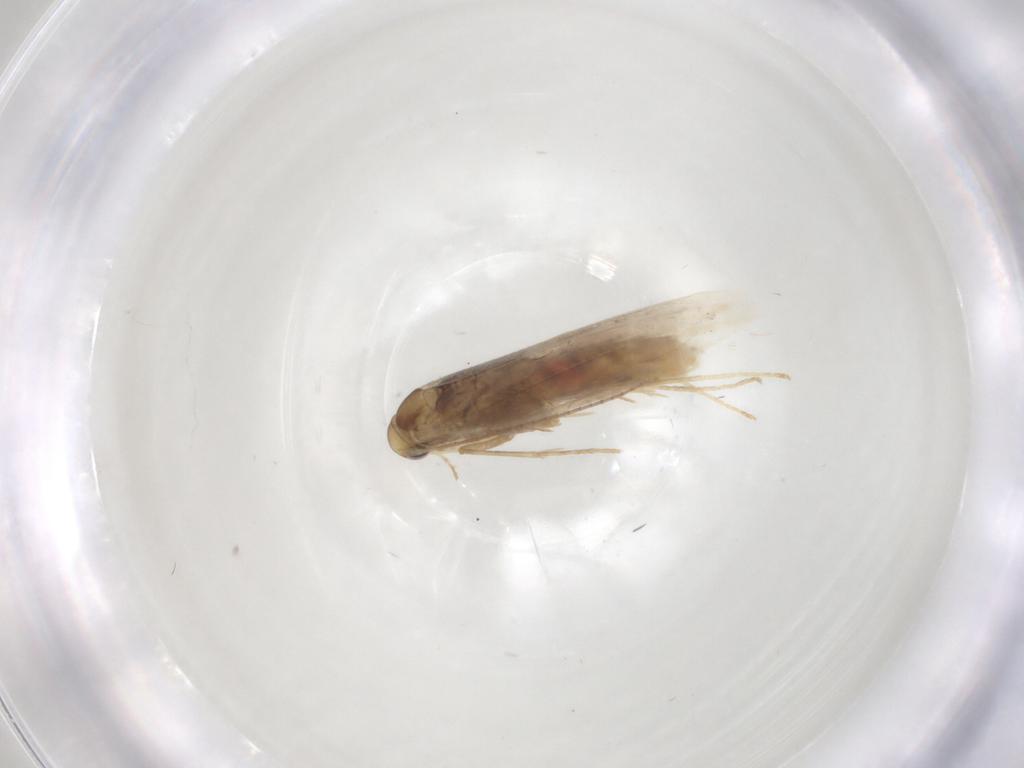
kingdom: Animalia
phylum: Arthropoda
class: Insecta
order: Lepidoptera
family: Gracillariidae
